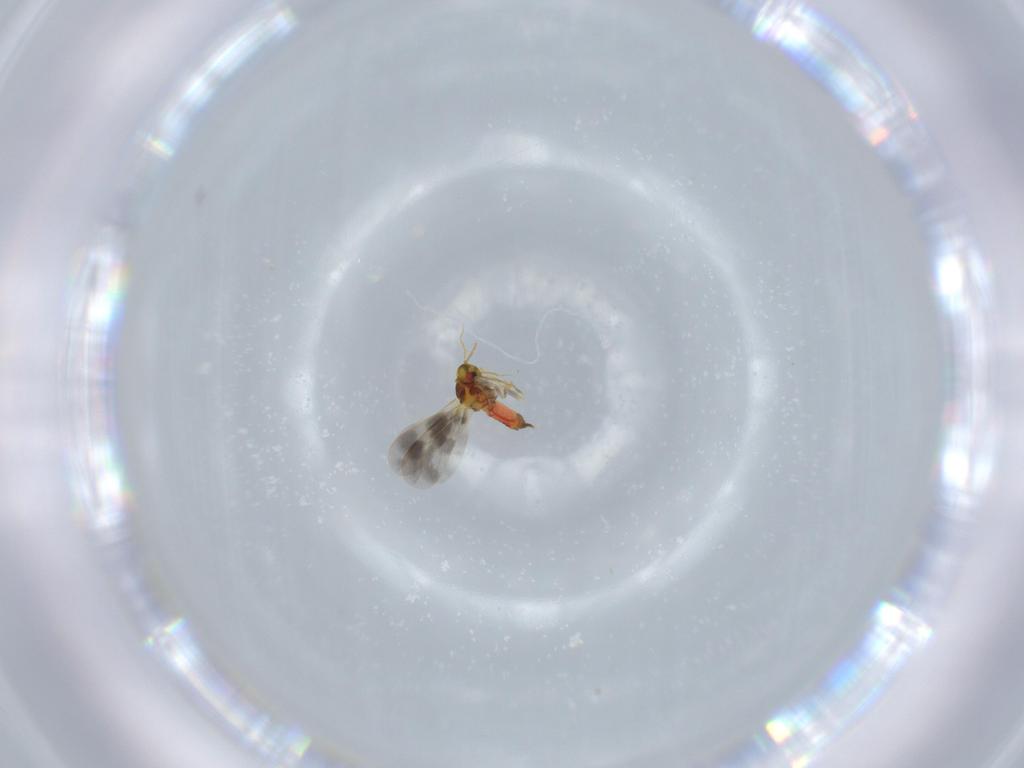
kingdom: Animalia
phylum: Arthropoda
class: Insecta
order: Hemiptera
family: Aleyrodidae
